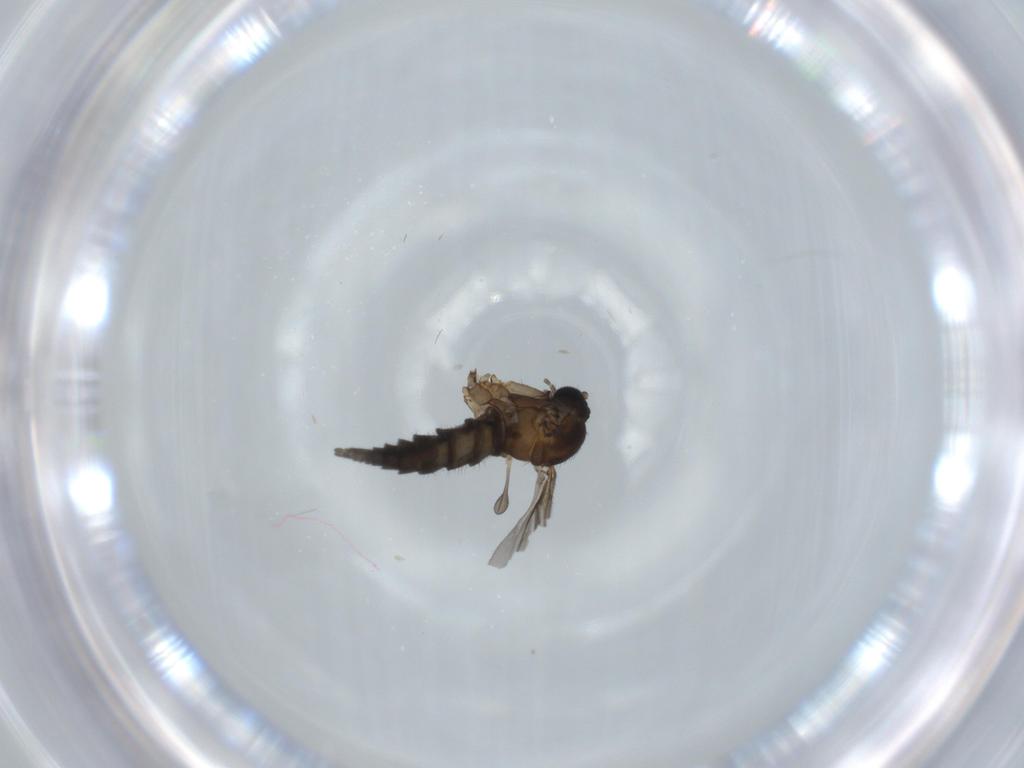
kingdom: Animalia
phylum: Arthropoda
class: Insecta
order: Diptera
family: Sciaridae
